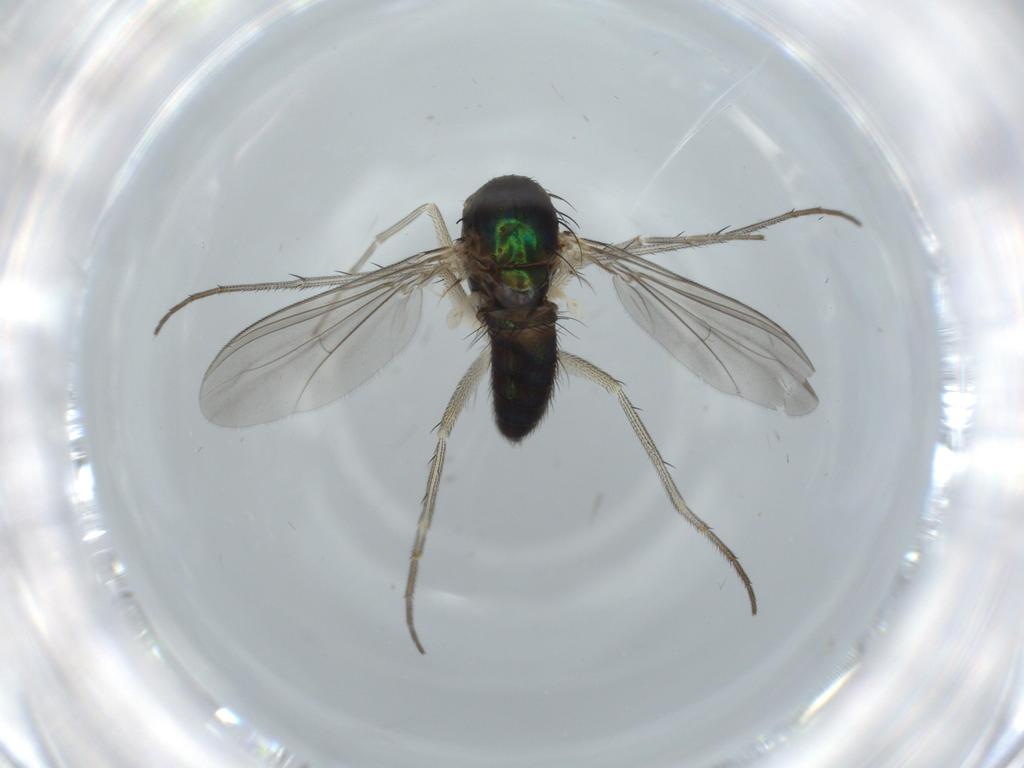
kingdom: Animalia
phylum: Arthropoda
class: Insecta
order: Diptera
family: Dolichopodidae
